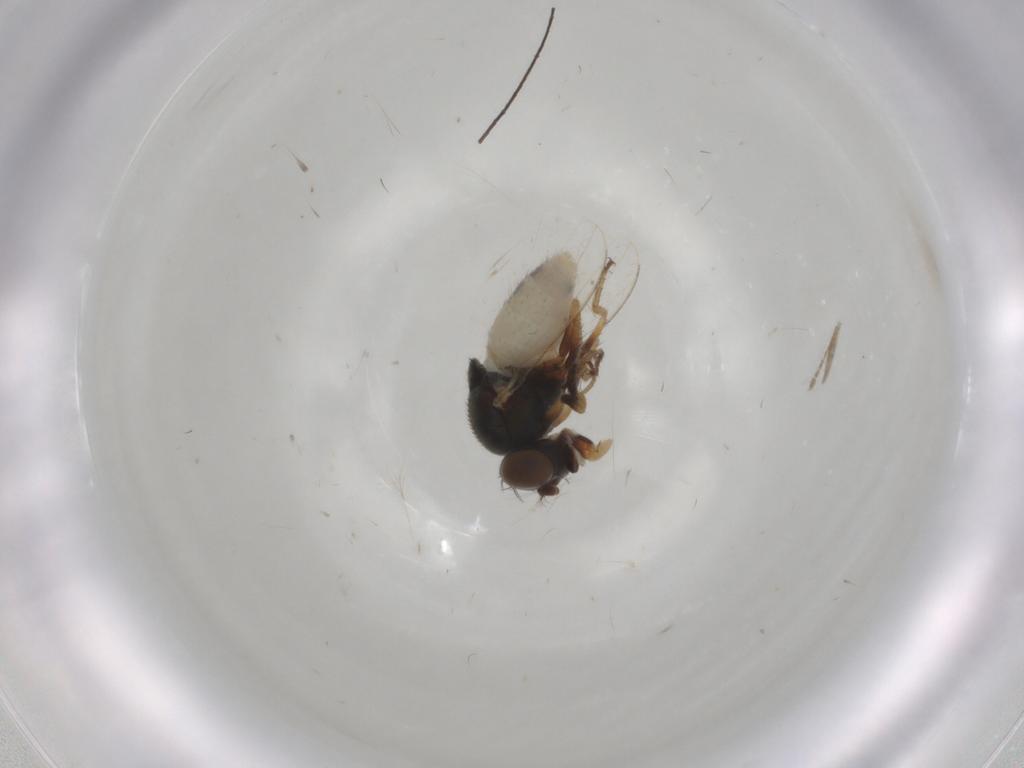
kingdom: Animalia
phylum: Arthropoda
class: Insecta
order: Diptera
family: Ephydridae
